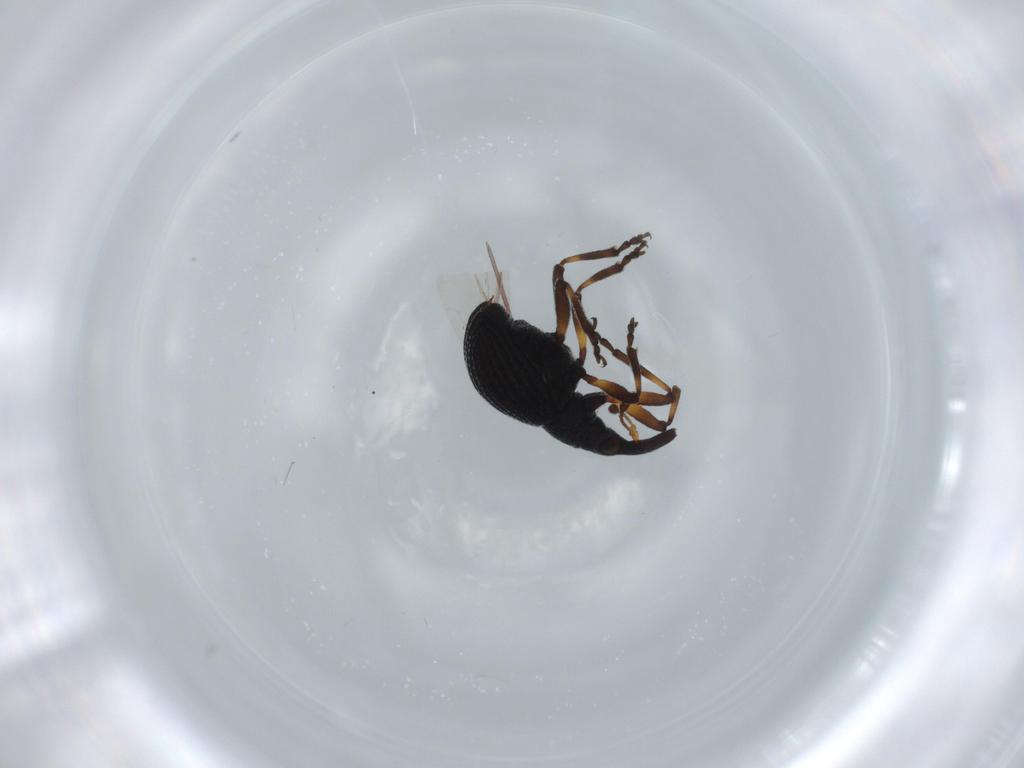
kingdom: Animalia
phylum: Arthropoda
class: Insecta
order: Coleoptera
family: Brentidae
